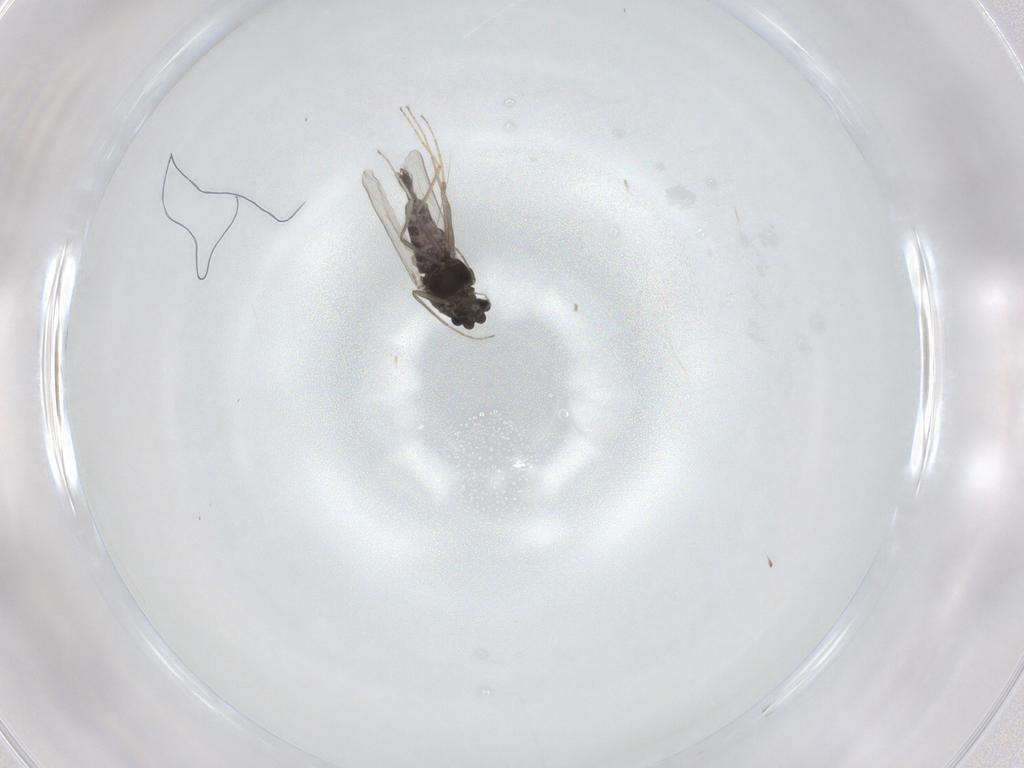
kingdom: Animalia
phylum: Arthropoda
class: Insecta
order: Diptera
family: Chironomidae
